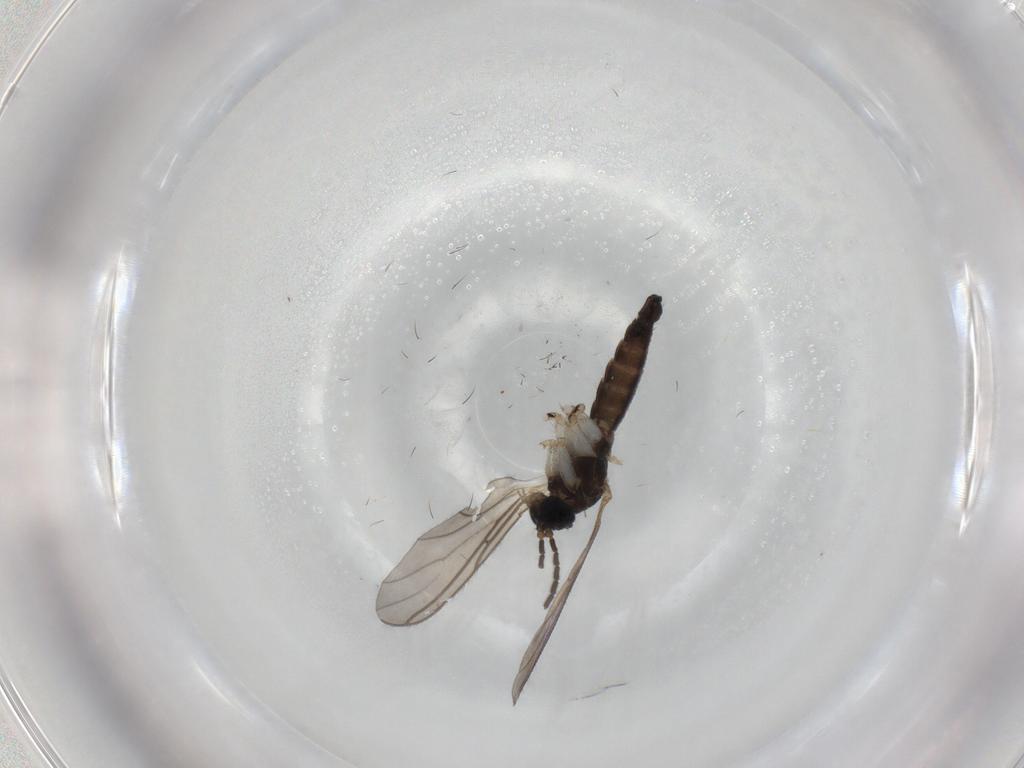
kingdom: Animalia
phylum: Arthropoda
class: Insecta
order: Diptera
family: Sciaridae
